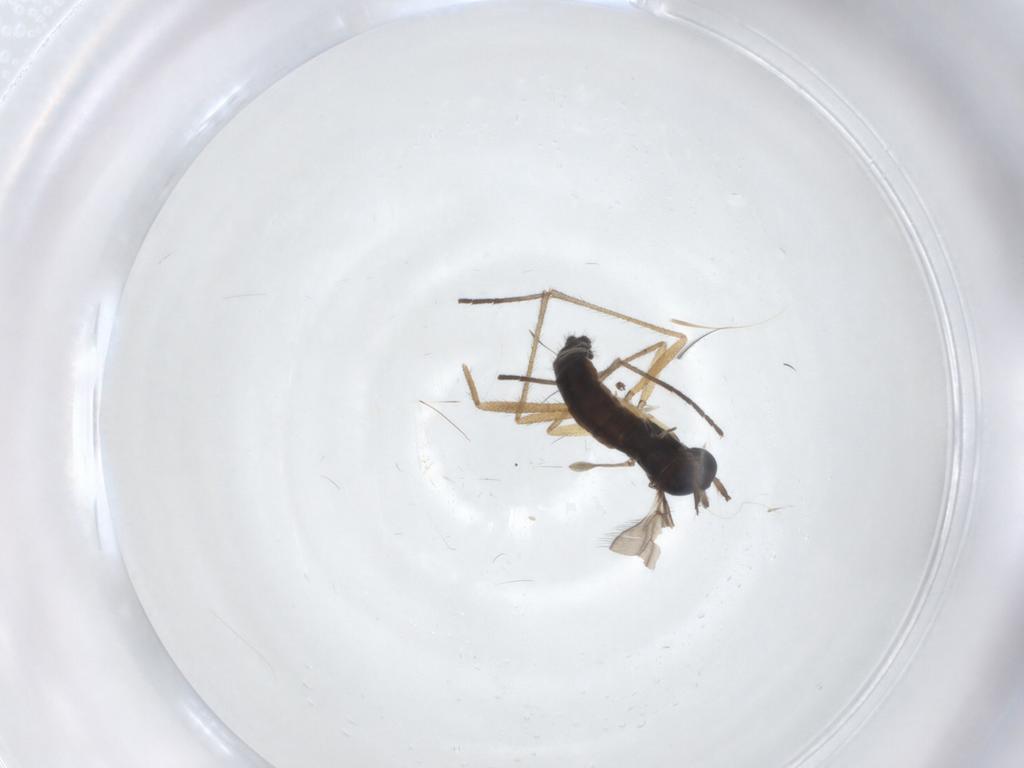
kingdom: Animalia
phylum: Arthropoda
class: Insecta
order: Diptera
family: Sciaridae
